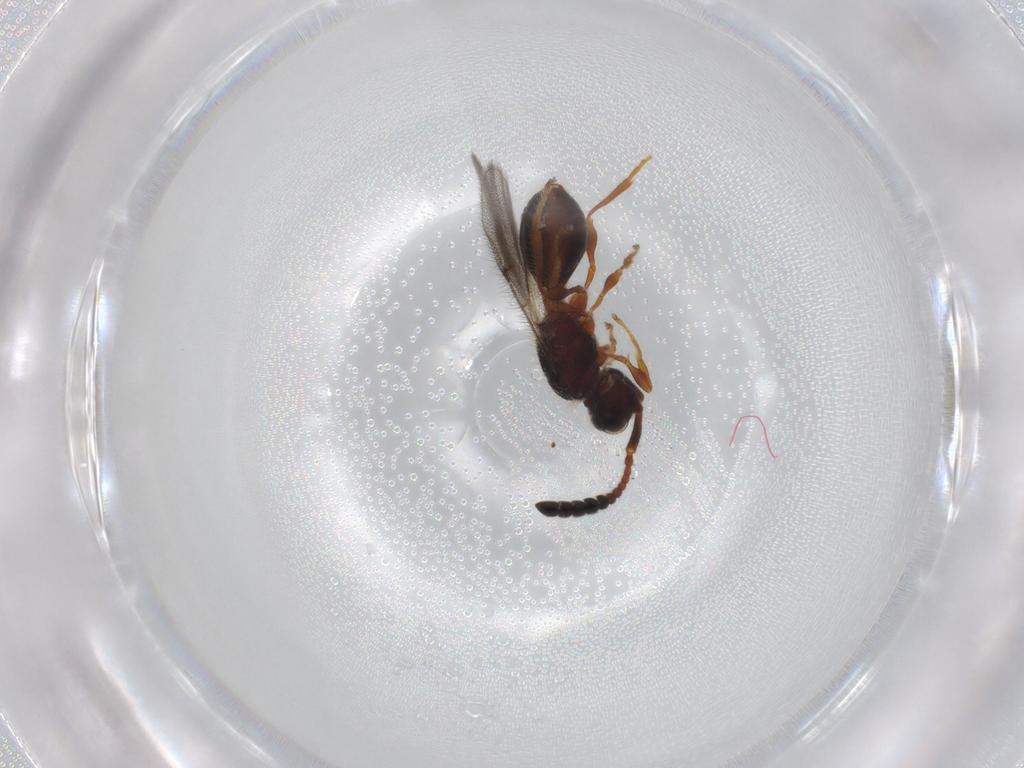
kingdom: Animalia
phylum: Arthropoda
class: Insecta
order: Hymenoptera
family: Diapriidae
